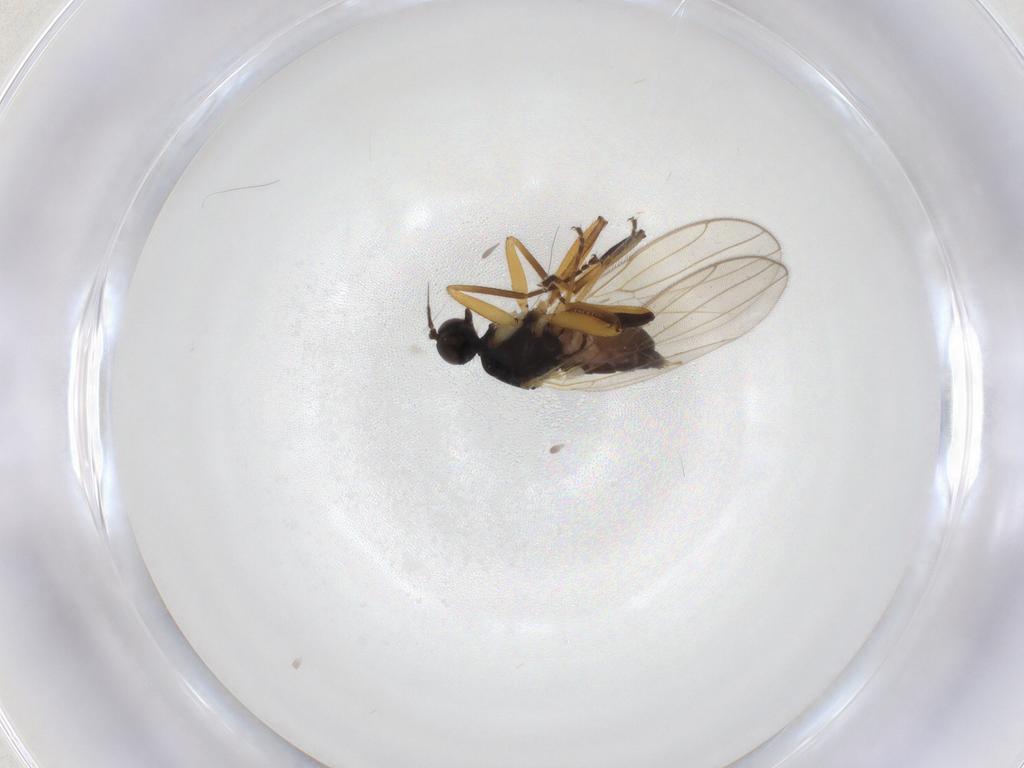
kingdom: Animalia
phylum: Arthropoda
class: Insecta
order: Diptera
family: Hybotidae
